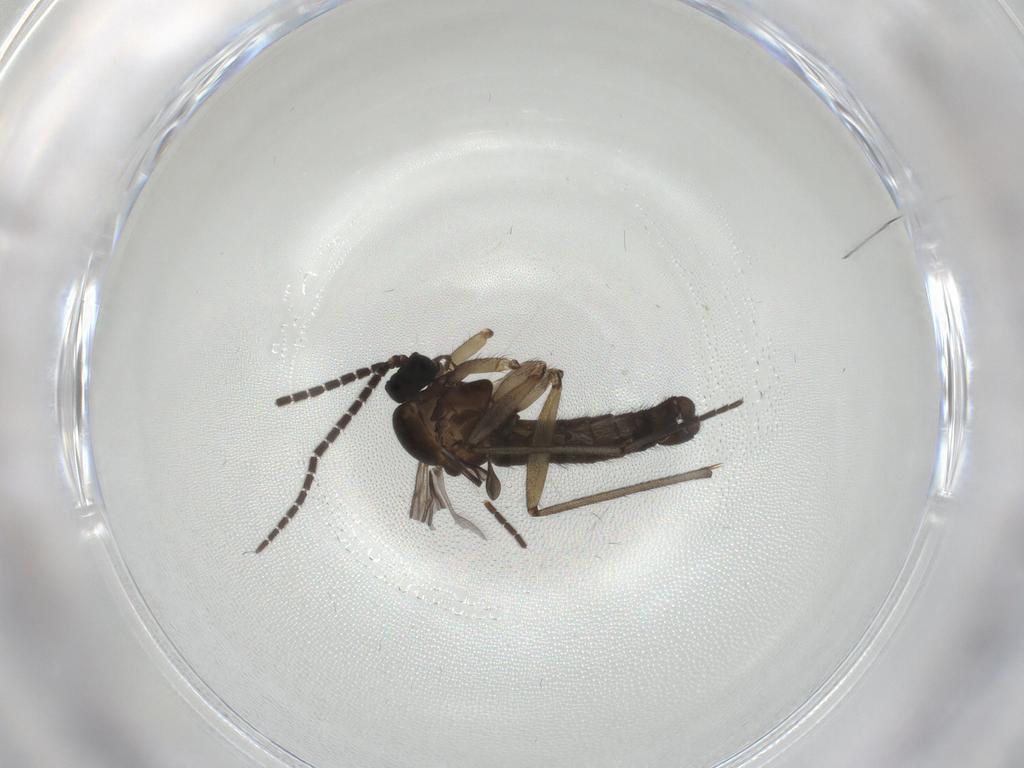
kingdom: Animalia
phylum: Arthropoda
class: Insecta
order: Diptera
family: Sciaridae
